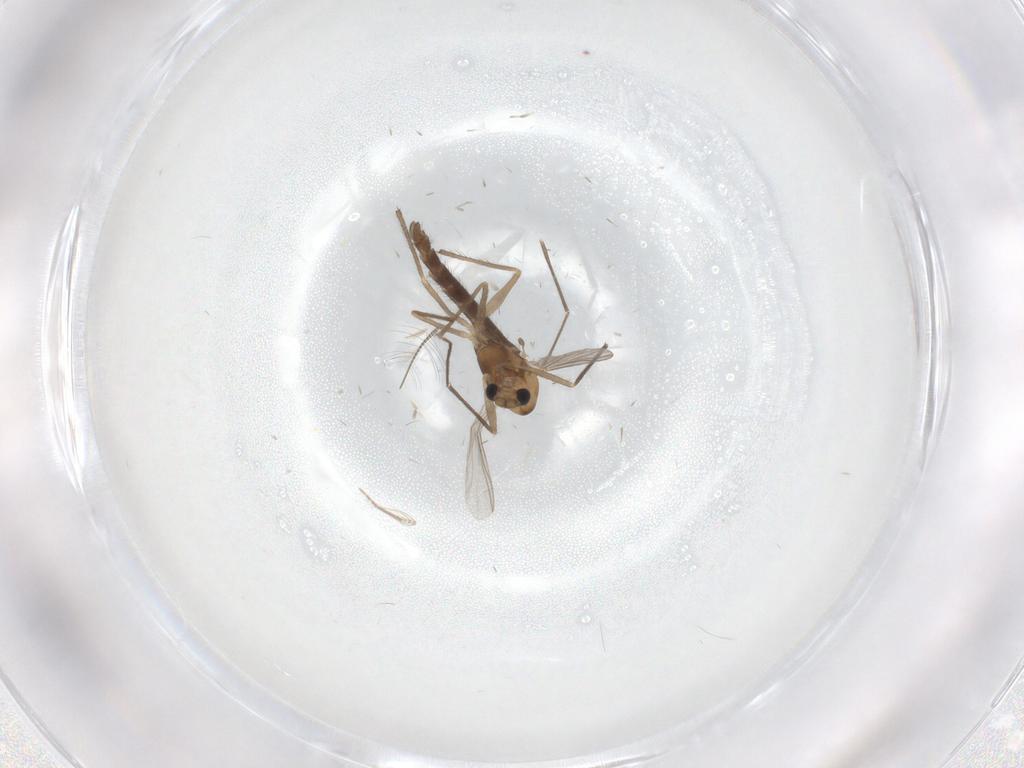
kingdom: Animalia
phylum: Arthropoda
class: Insecta
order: Diptera
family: Chironomidae
